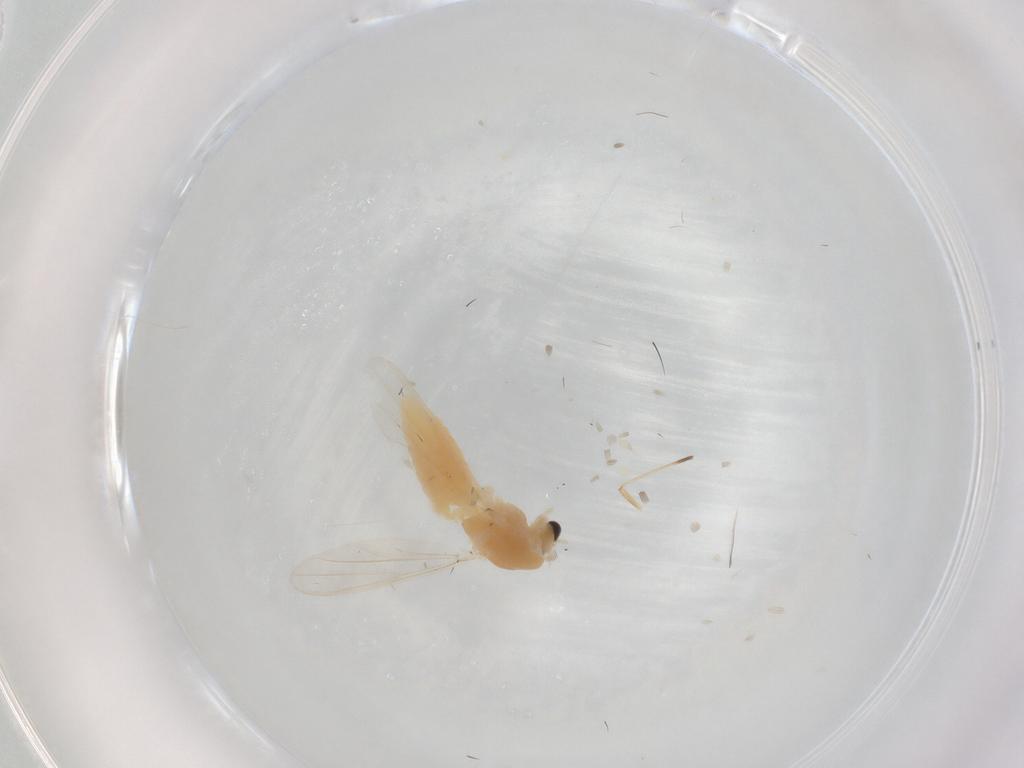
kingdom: Animalia
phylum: Arthropoda
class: Insecta
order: Diptera
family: Chironomidae
